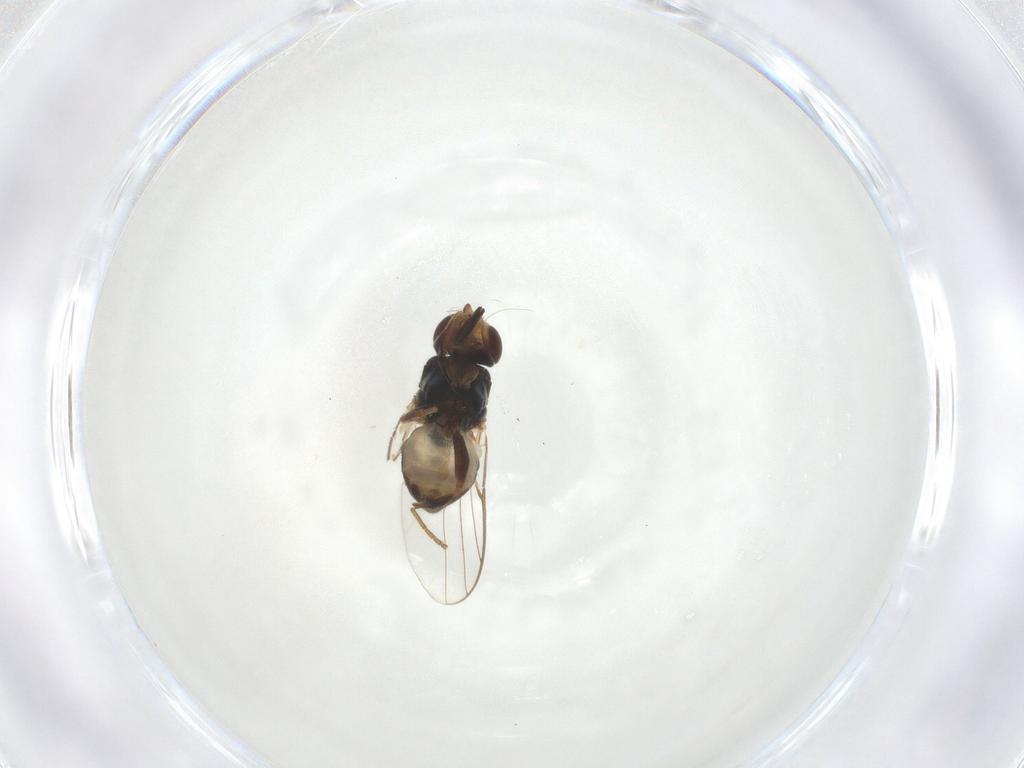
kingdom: Animalia
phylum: Arthropoda
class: Insecta
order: Diptera
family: Chloropidae
